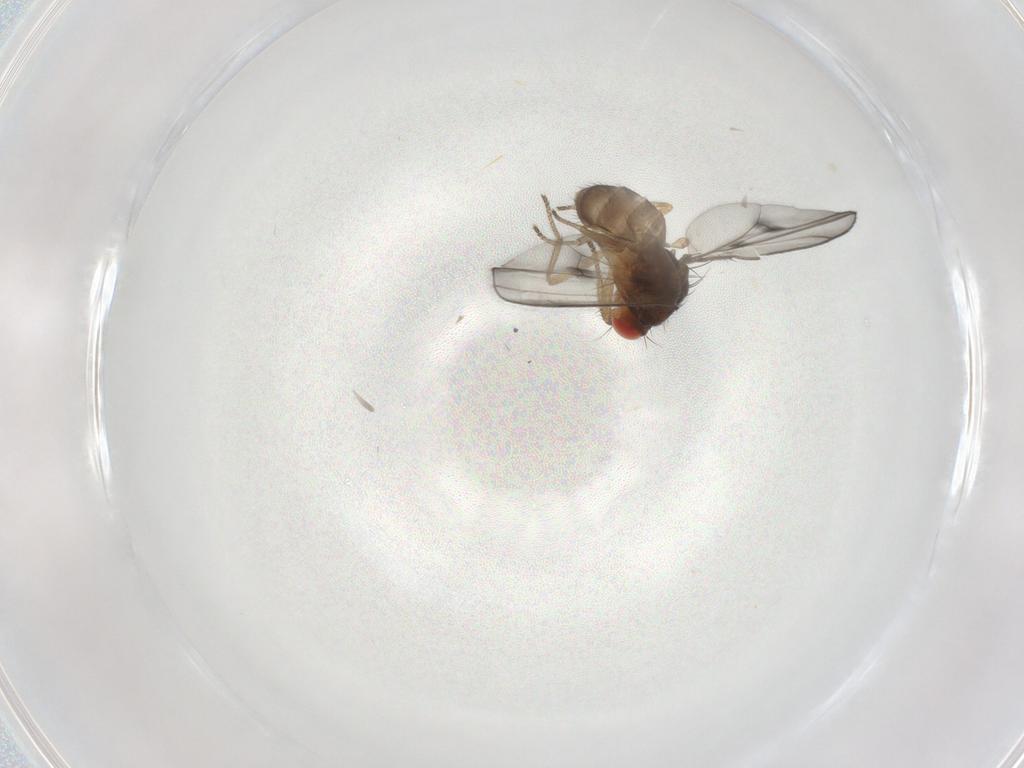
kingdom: Animalia
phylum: Arthropoda
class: Insecta
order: Diptera
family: Drosophilidae
